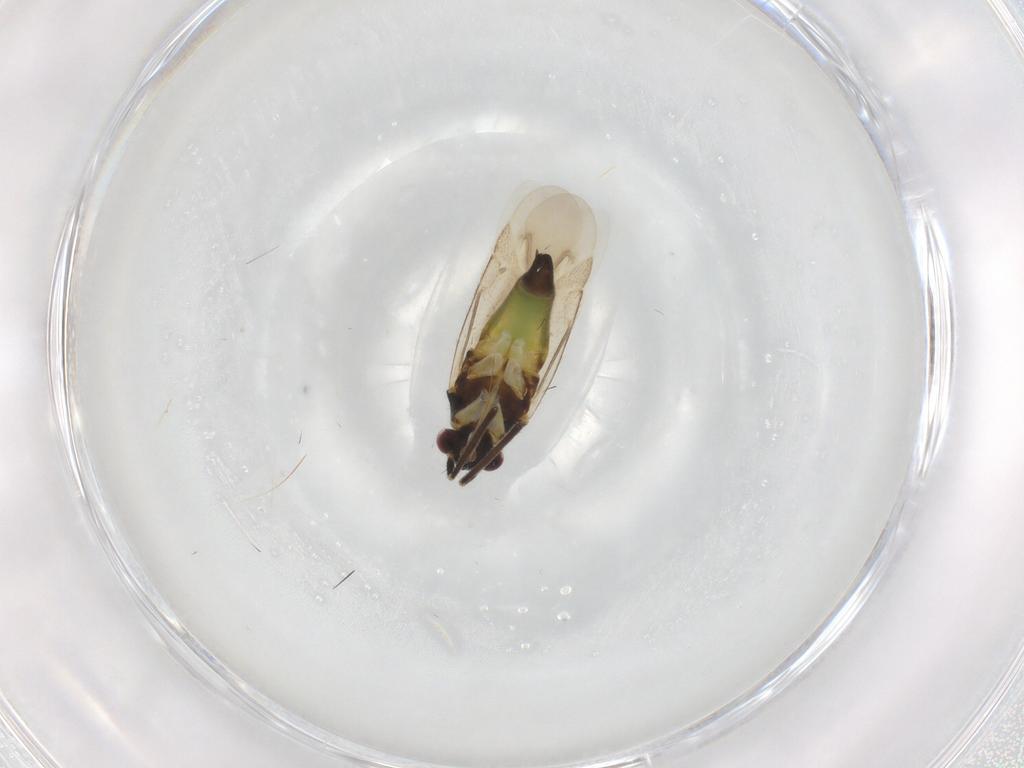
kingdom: Animalia
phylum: Arthropoda
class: Insecta
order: Hemiptera
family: Miridae
